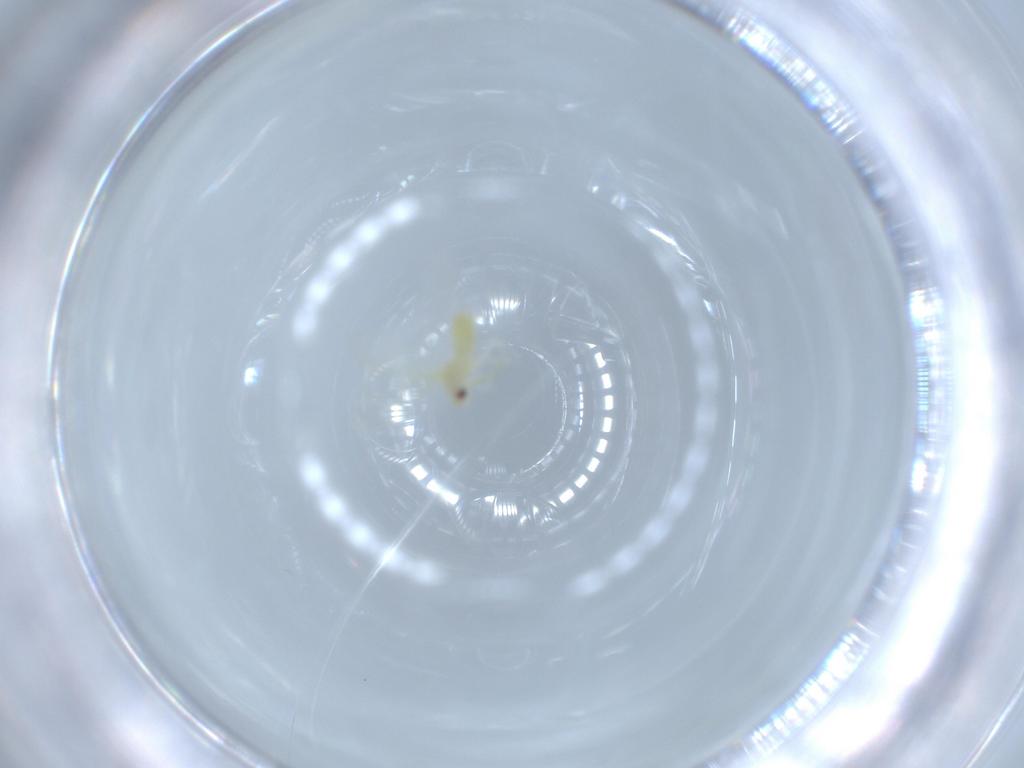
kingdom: Animalia
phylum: Arthropoda
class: Insecta
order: Hemiptera
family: Aleyrodidae
